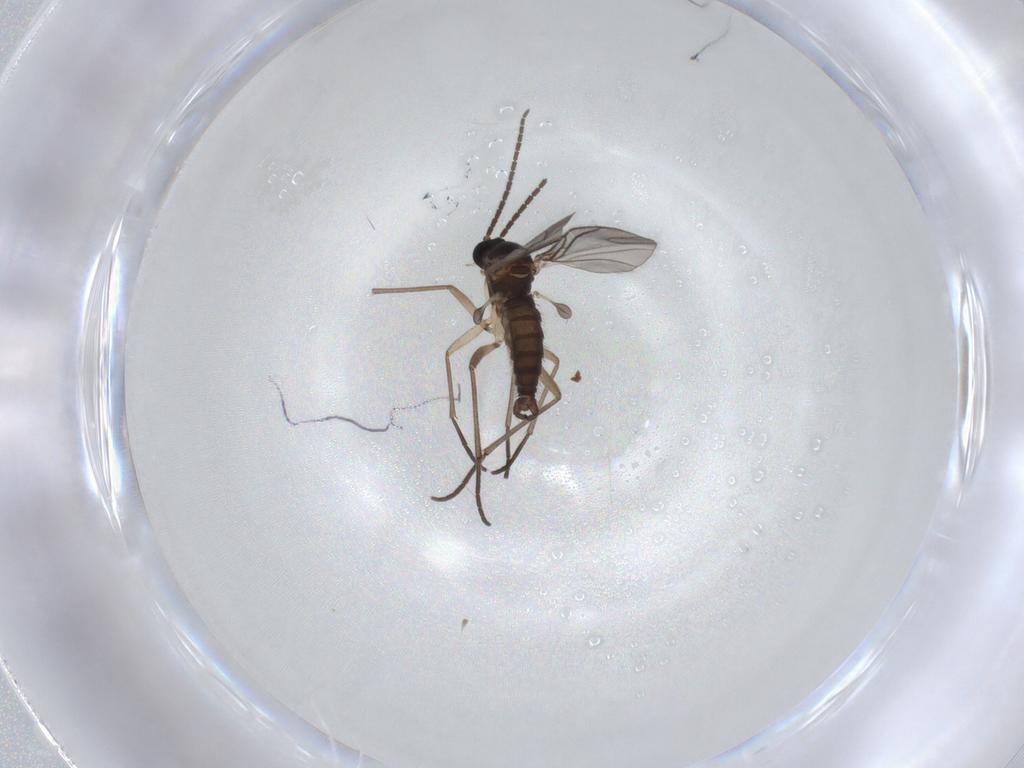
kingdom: Animalia
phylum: Arthropoda
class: Insecta
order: Diptera
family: Sciaridae
